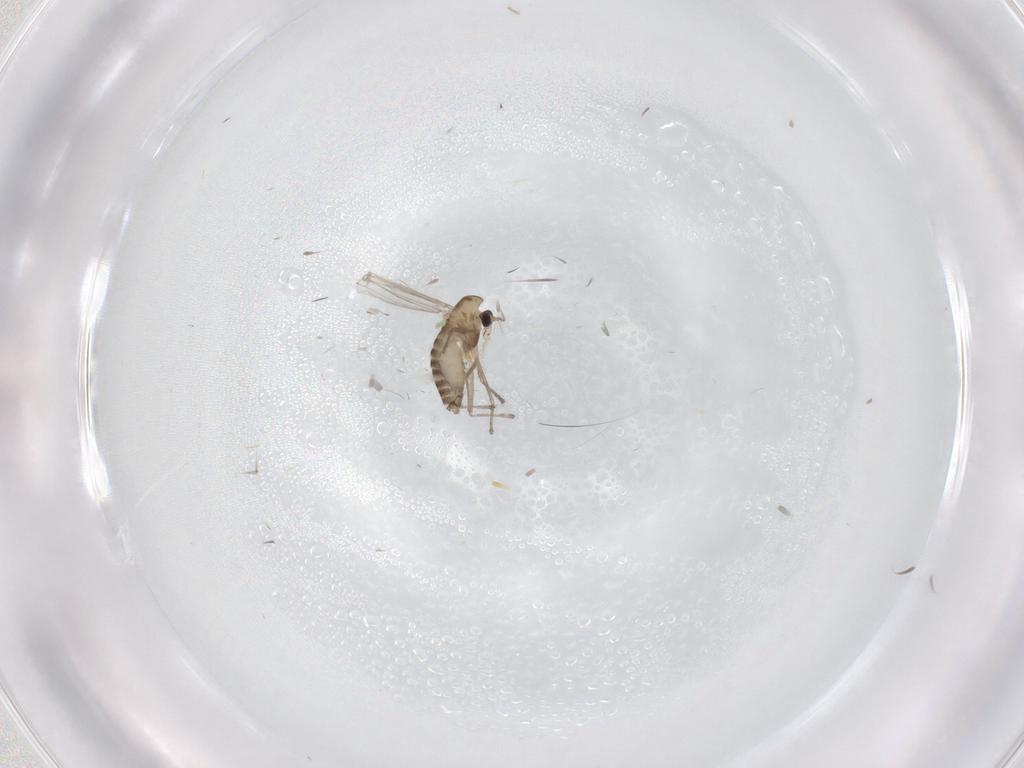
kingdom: Animalia
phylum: Arthropoda
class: Insecta
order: Diptera
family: Chironomidae
